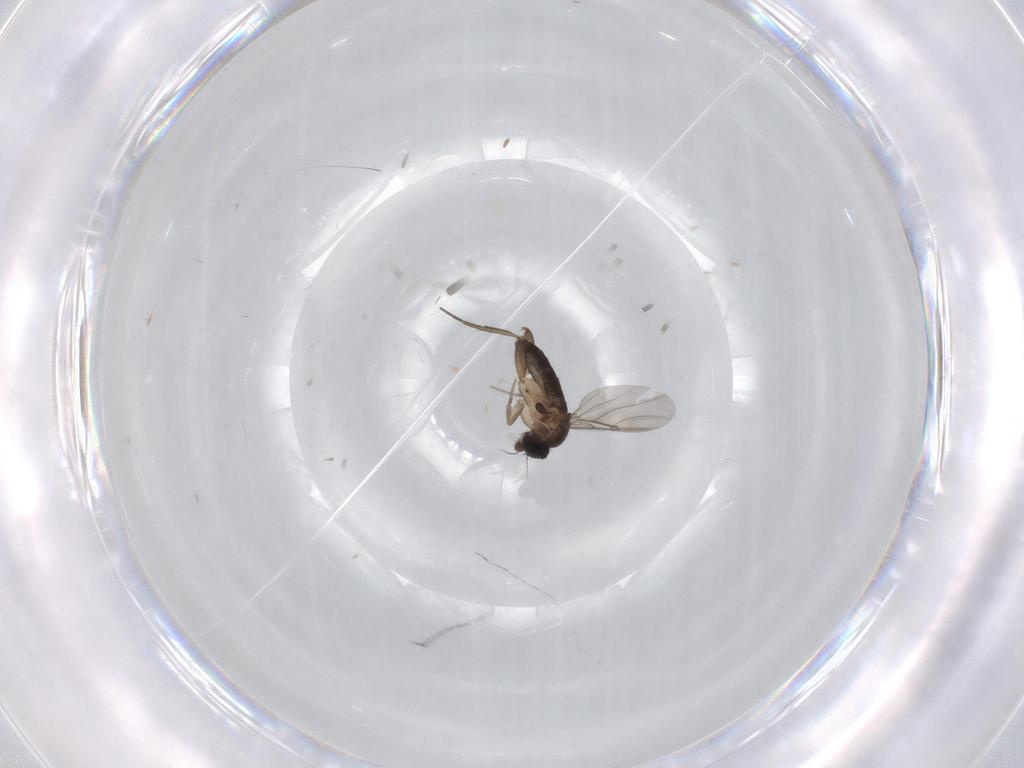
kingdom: Animalia
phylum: Arthropoda
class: Insecta
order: Diptera
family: Phoridae
